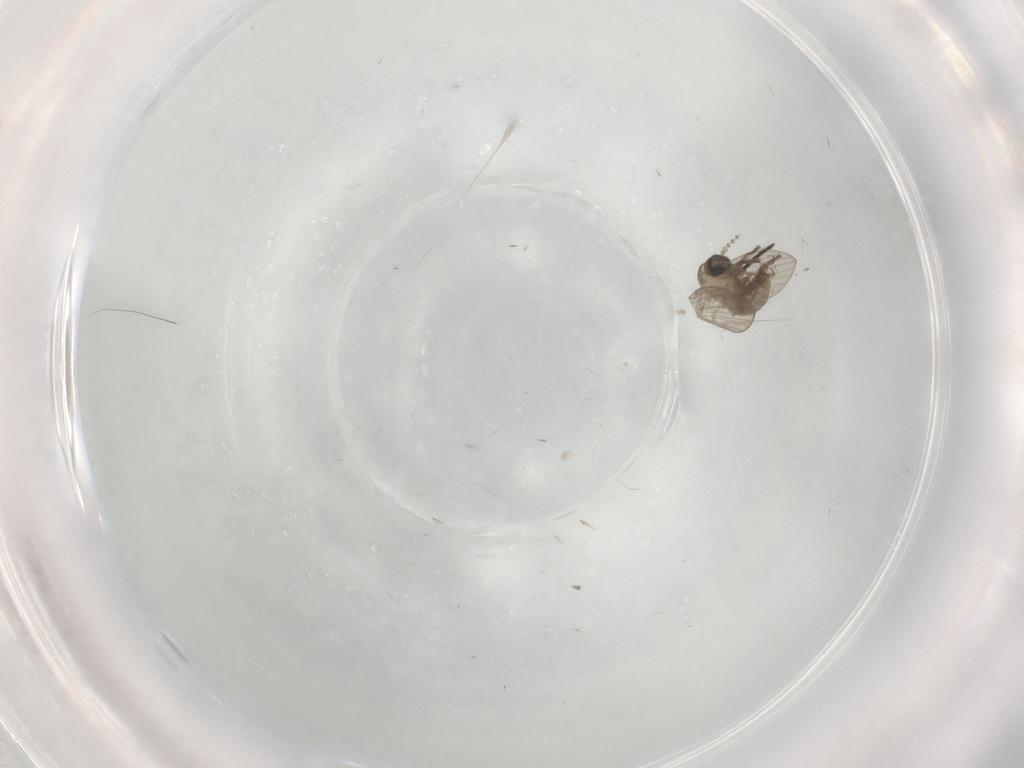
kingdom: Animalia
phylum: Arthropoda
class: Insecta
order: Diptera
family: Psychodidae
